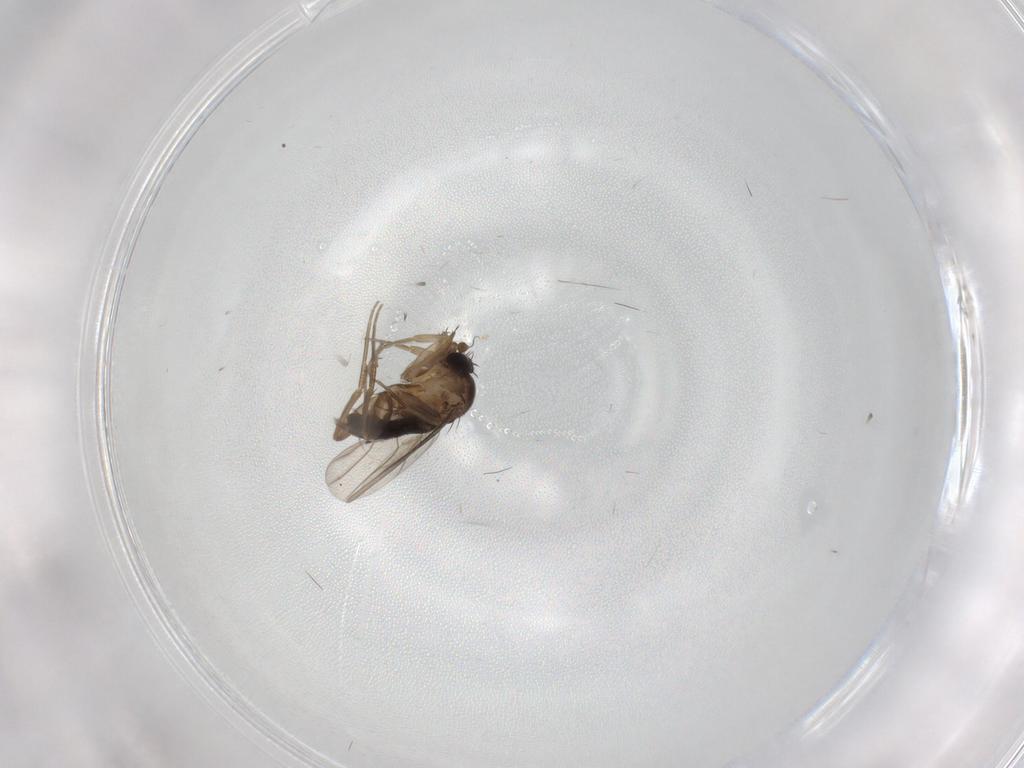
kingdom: Animalia
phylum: Arthropoda
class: Insecta
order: Diptera
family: Phoridae
